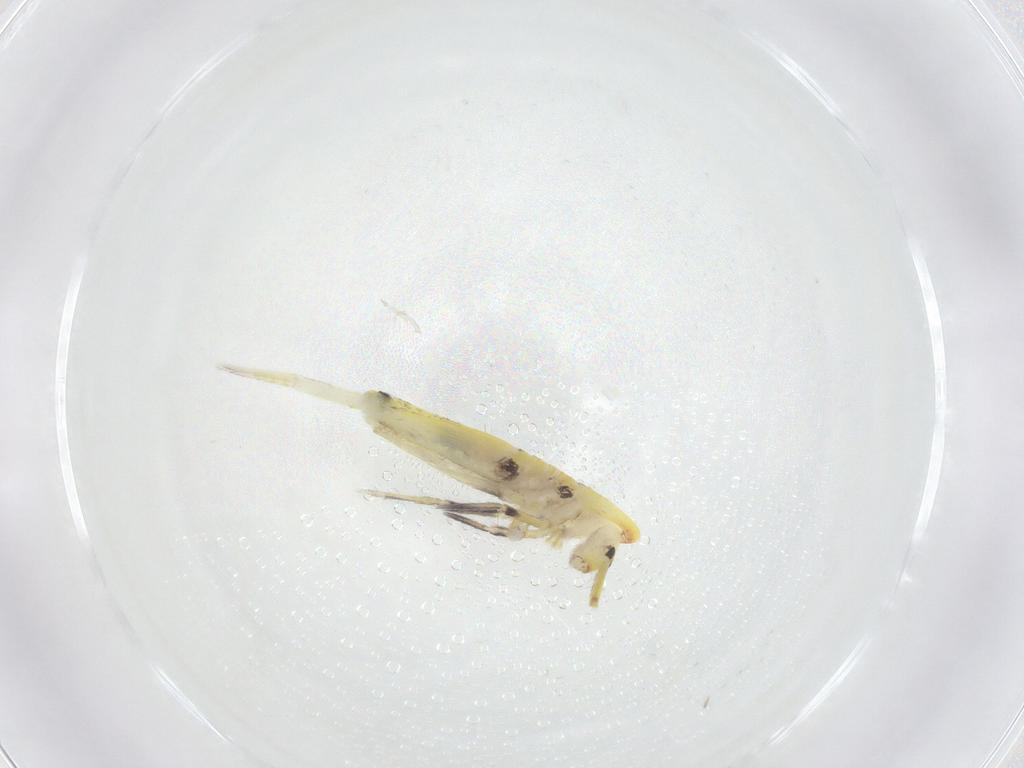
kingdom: Animalia
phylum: Arthropoda
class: Collembola
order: Entomobryomorpha
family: Entomobryidae
